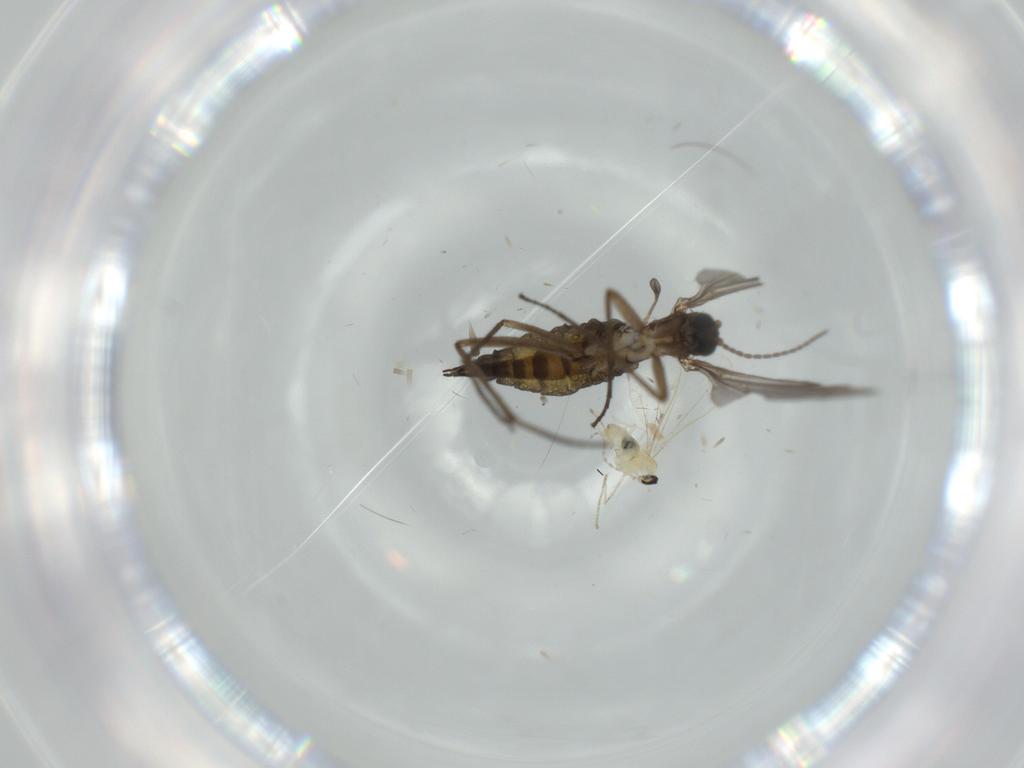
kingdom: Animalia
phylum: Arthropoda
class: Insecta
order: Diptera
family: Sciaridae
